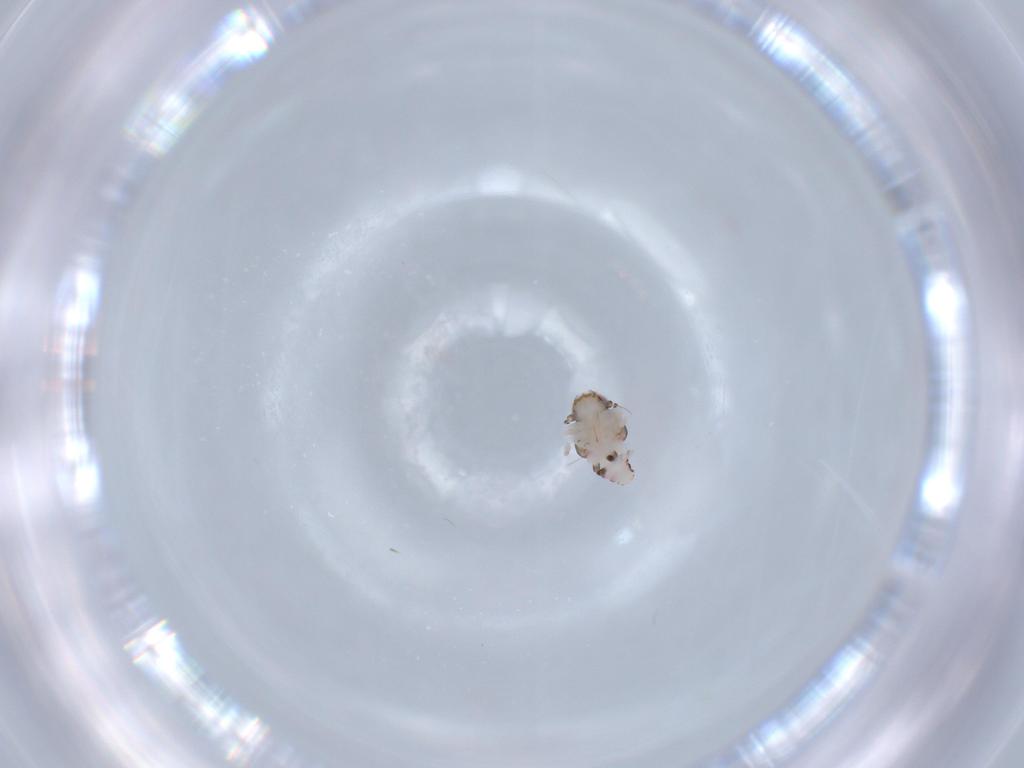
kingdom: Animalia
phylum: Arthropoda
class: Insecta
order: Hemiptera
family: Nogodinidae
